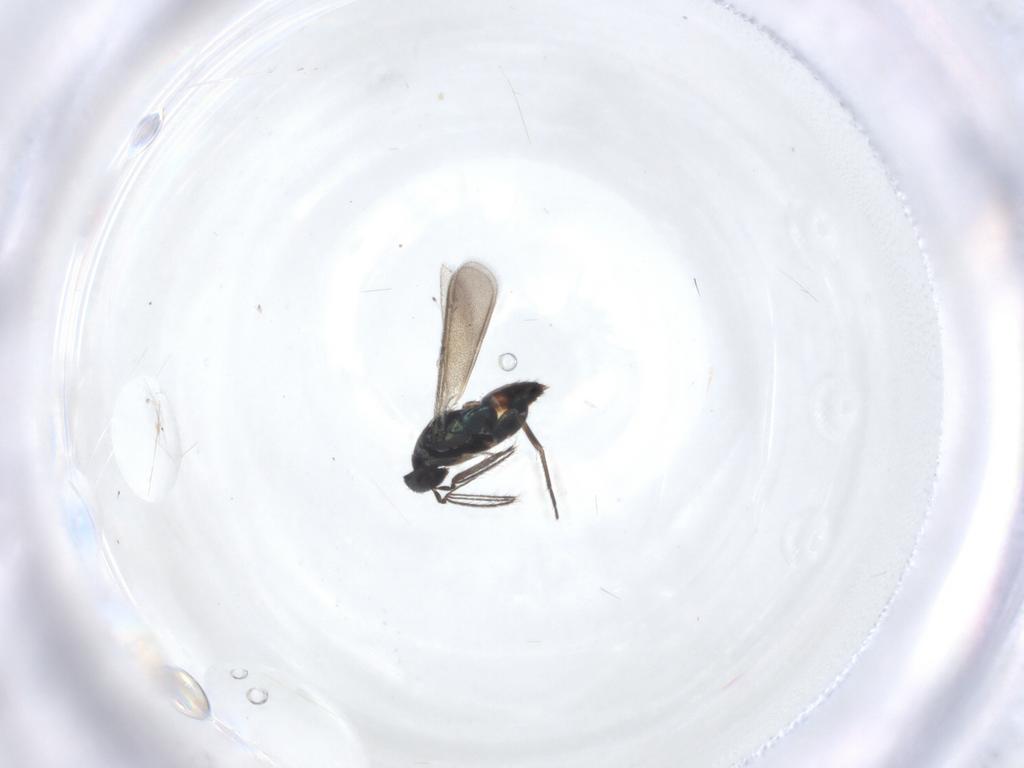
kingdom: Animalia
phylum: Arthropoda
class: Insecta
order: Hymenoptera
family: Eulophidae
